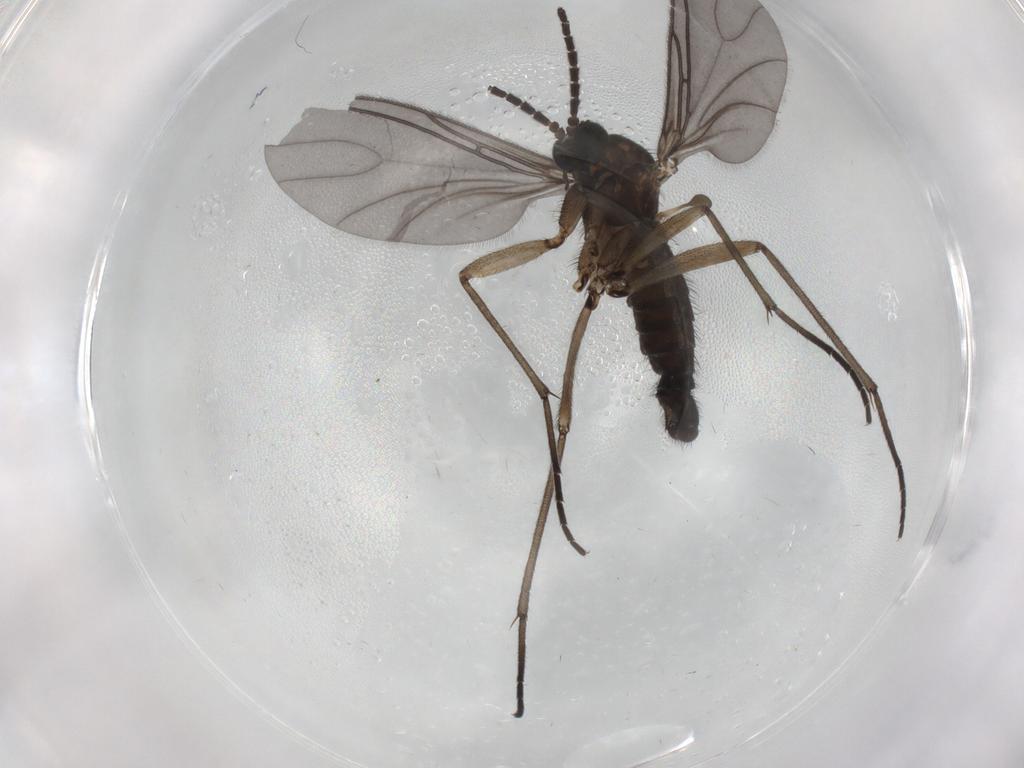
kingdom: Animalia
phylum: Arthropoda
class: Insecta
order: Diptera
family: Sciaridae
